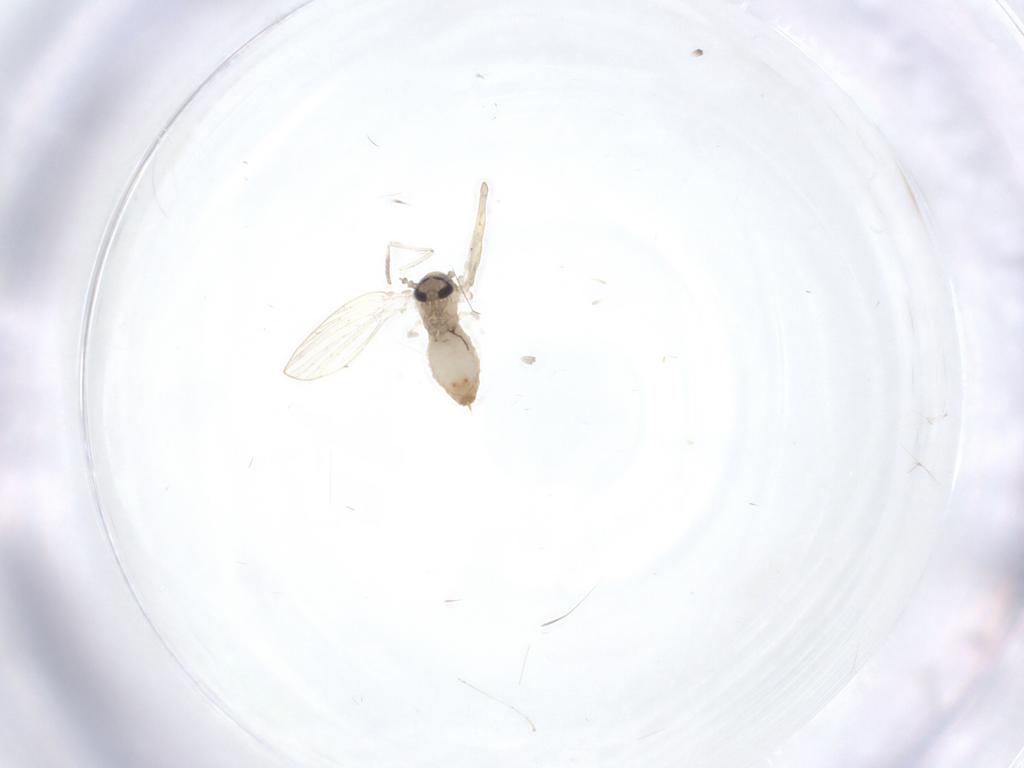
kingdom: Animalia
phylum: Arthropoda
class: Insecta
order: Diptera
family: Psychodidae
